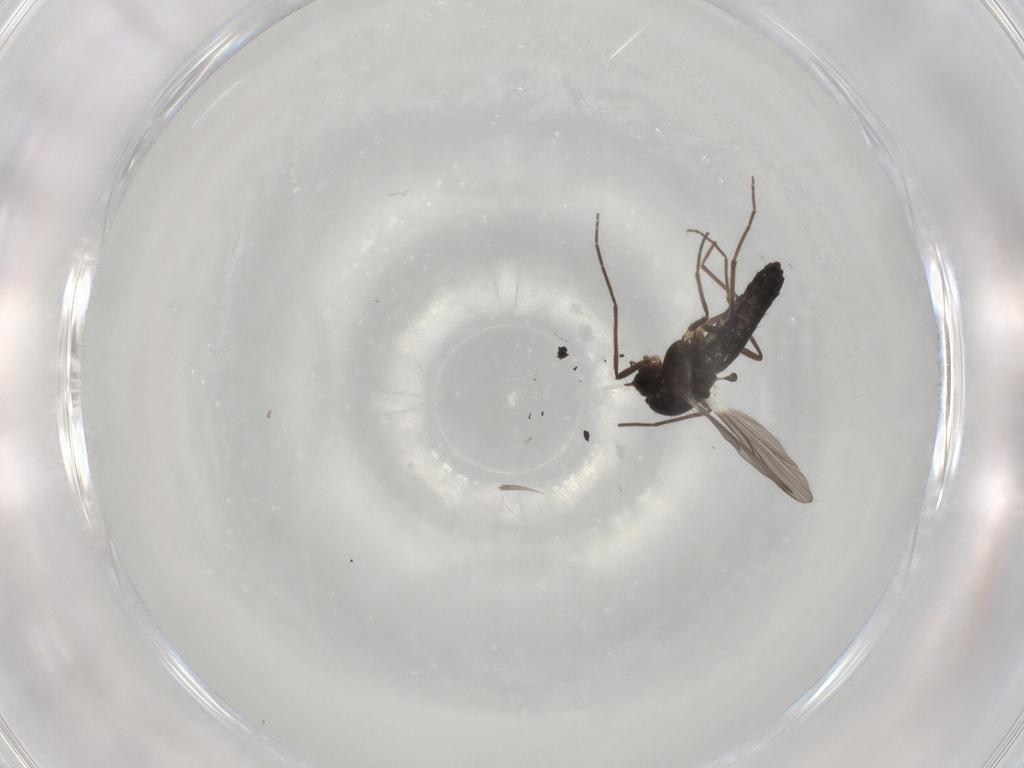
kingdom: Animalia
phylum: Arthropoda
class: Insecta
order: Diptera
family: Chironomidae
